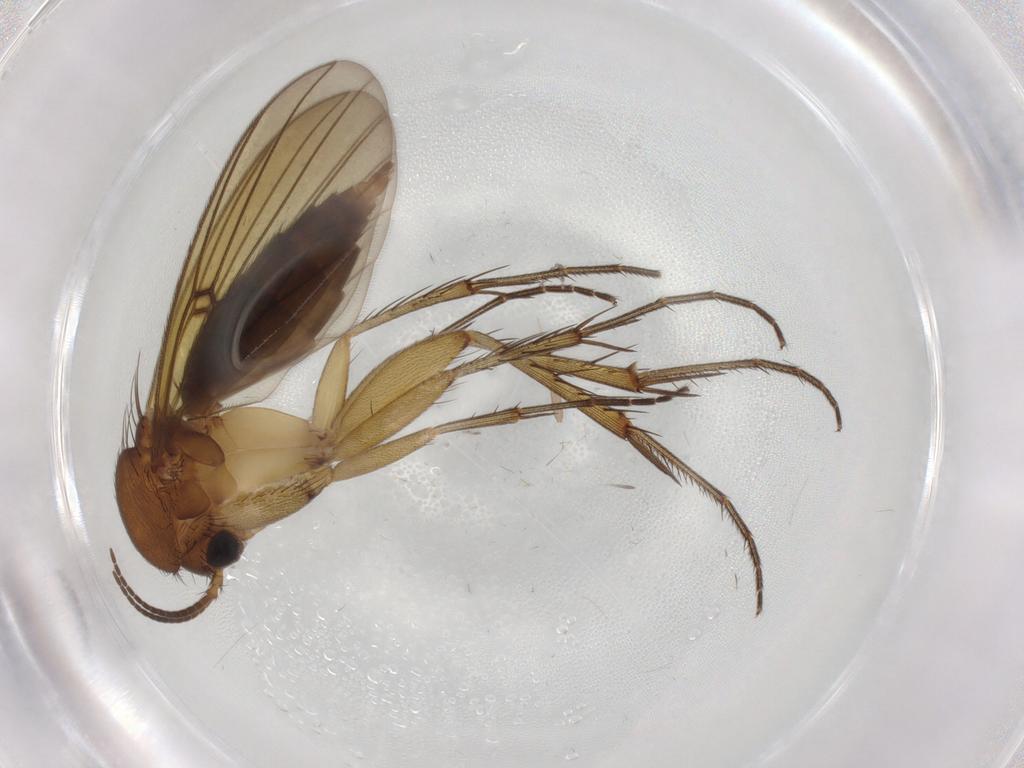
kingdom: Animalia
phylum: Arthropoda
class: Insecta
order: Diptera
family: Mycetophilidae
